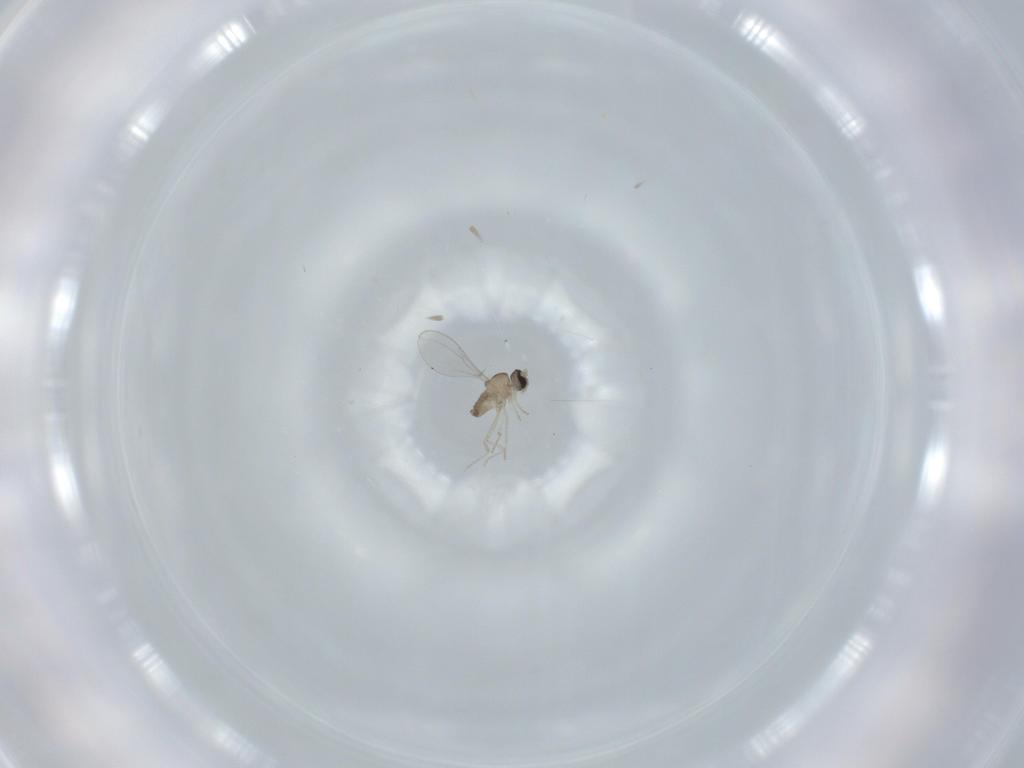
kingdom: Animalia
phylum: Arthropoda
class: Insecta
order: Diptera
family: Cecidomyiidae
